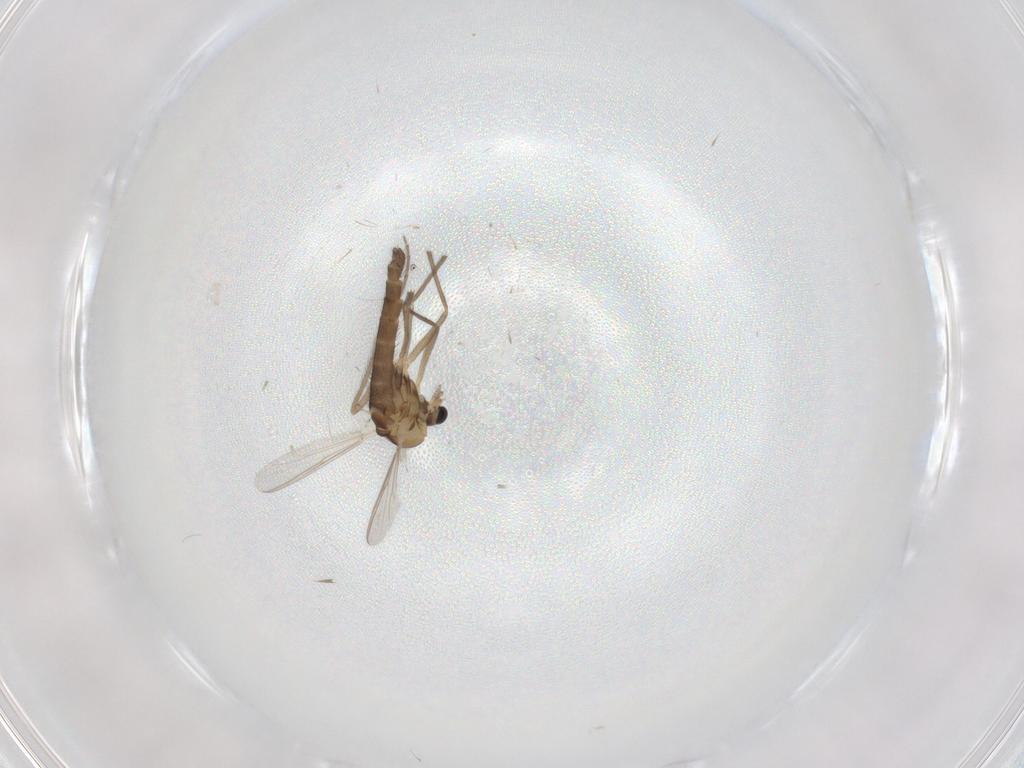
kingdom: Animalia
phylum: Arthropoda
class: Insecta
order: Diptera
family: Chironomidae
